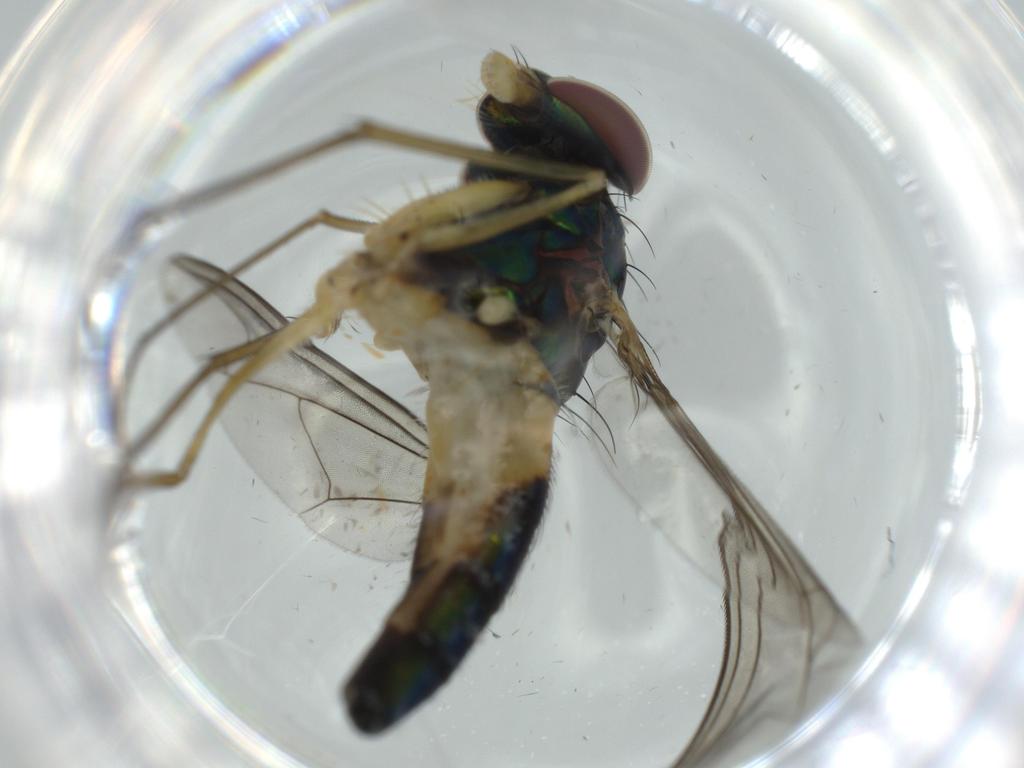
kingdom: Animalia
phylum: Arthropoda
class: Insecta
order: Diptera
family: Dolichopodidae
